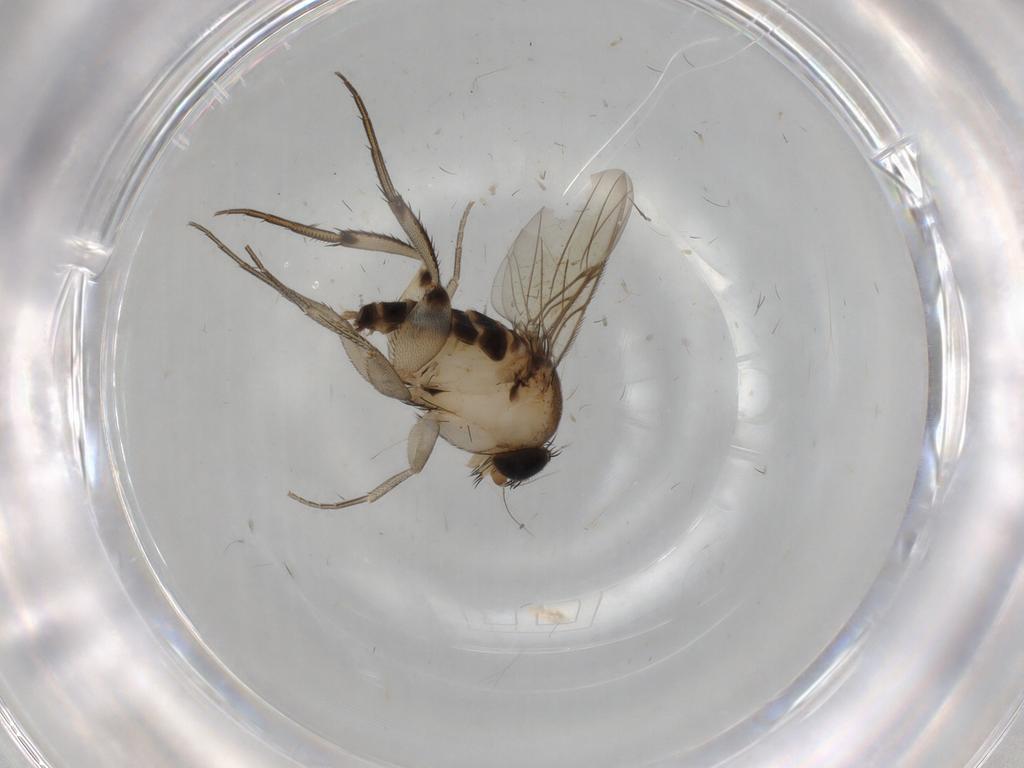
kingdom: Animalia
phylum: Arthropoda
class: Insecta
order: Diptera
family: Phoridae
